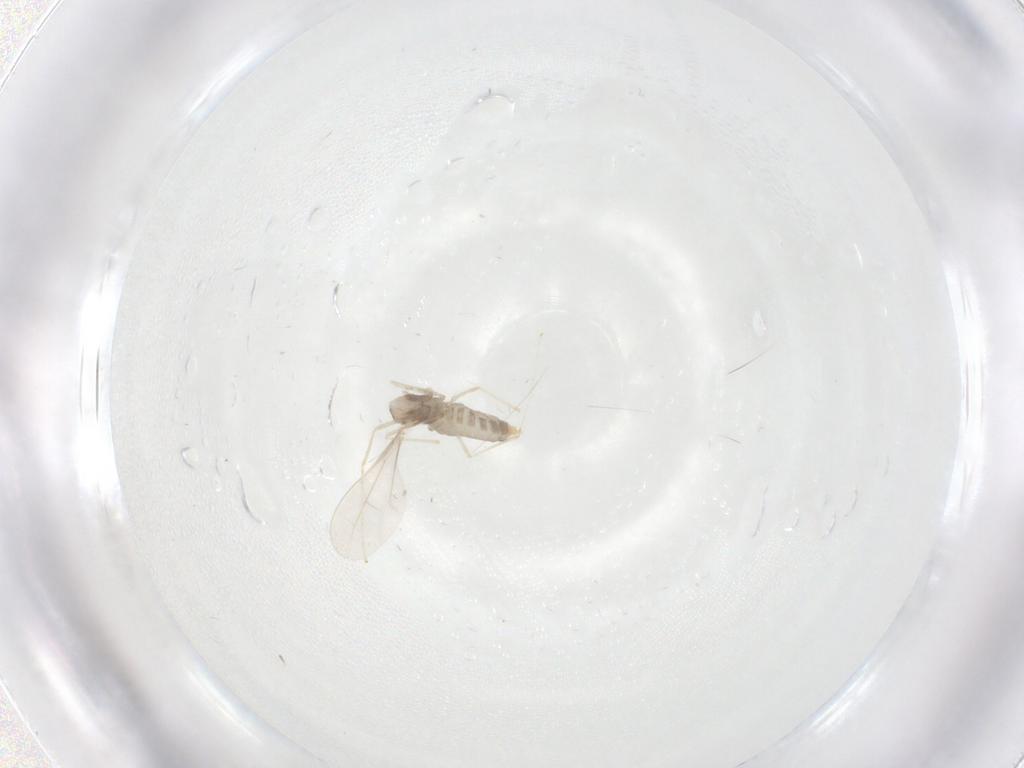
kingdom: Animalia
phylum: Arthropoda
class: Insecta
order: Diptera
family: Cecidomyiidae
